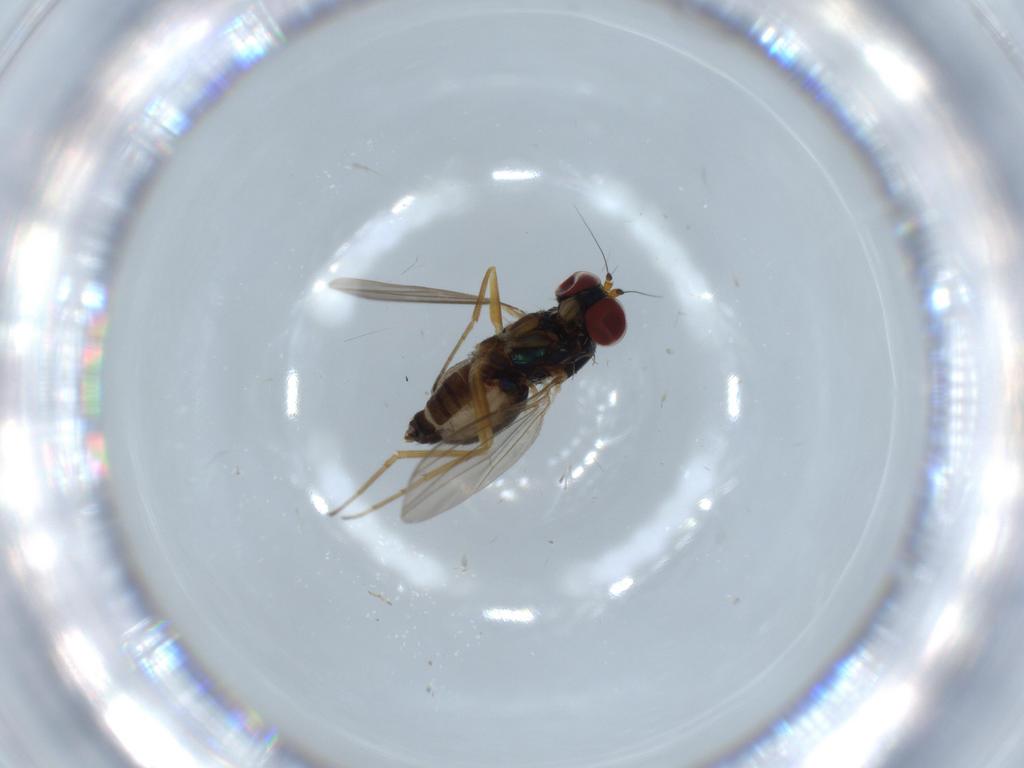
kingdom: Animalia
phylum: Arthropoda
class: Insecta
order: Diptera
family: Dolichopodidae
